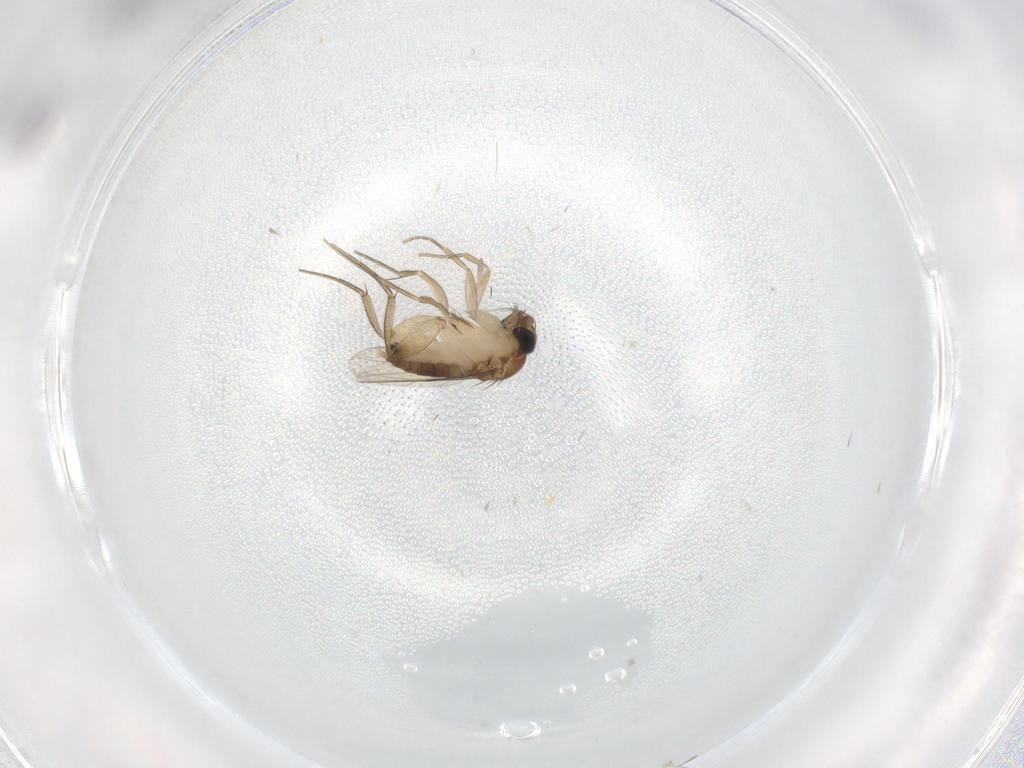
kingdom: Animalia
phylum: Arthropoda
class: Insecta
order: Diptera
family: Phoridae
